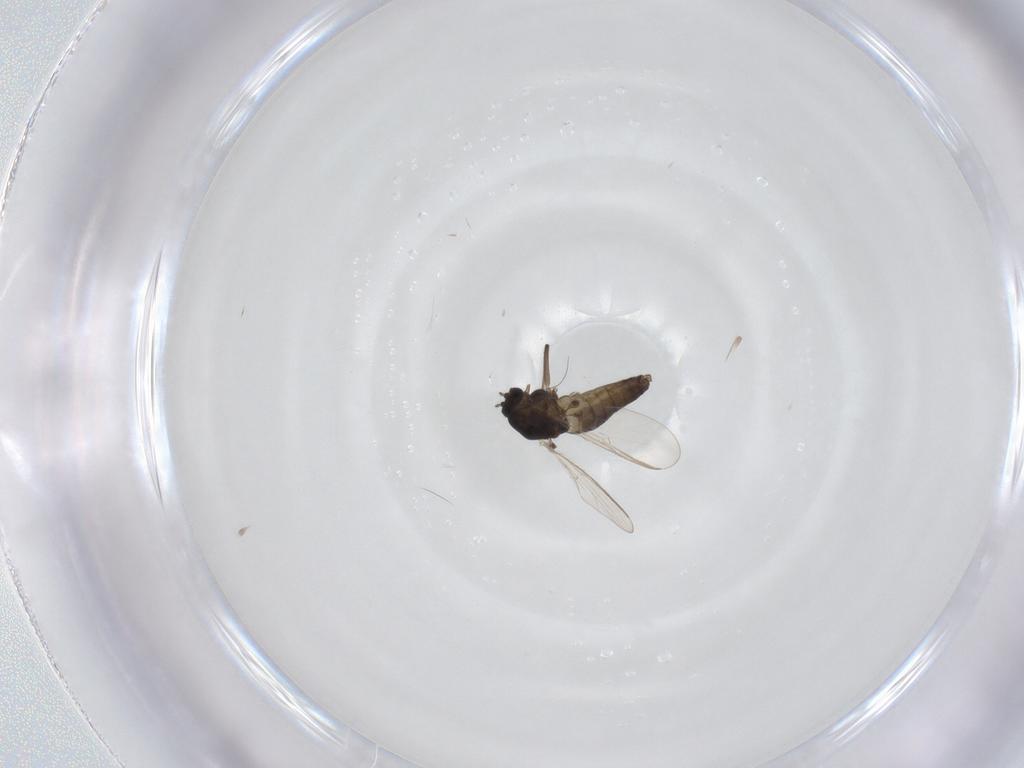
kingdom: Animalia
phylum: Arthropoda
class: Insecta
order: Diptera
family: Chironomidae
